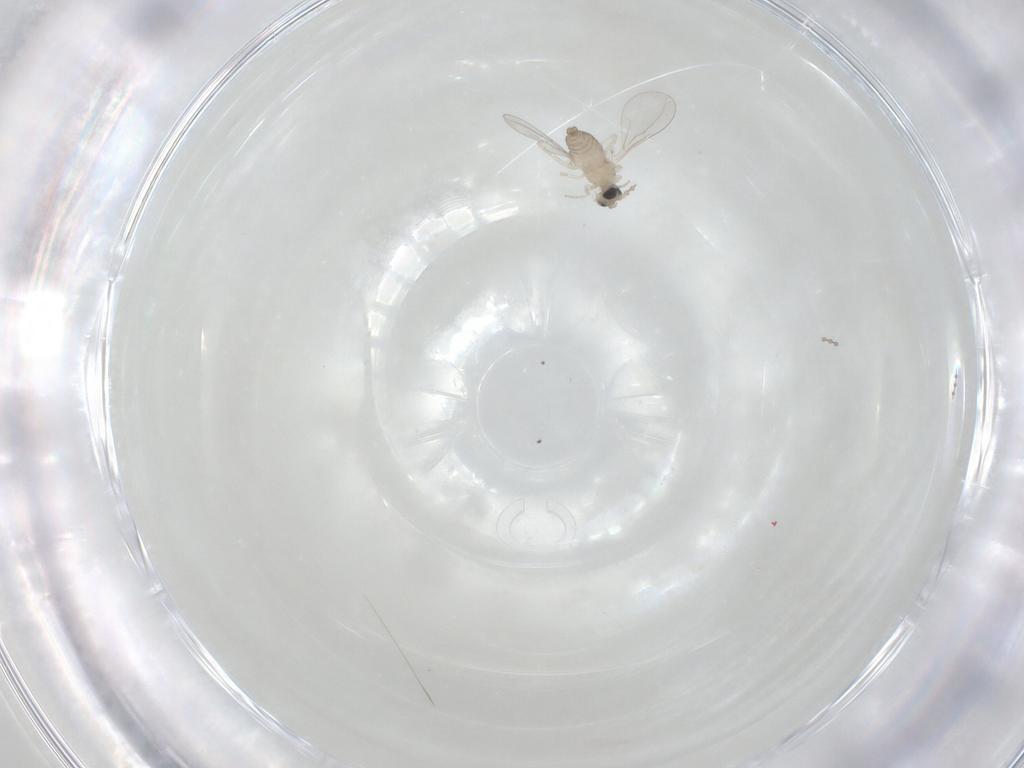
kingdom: Animalia
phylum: Arthropoda
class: Insecta
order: Diptera
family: Cecidomyiidae
